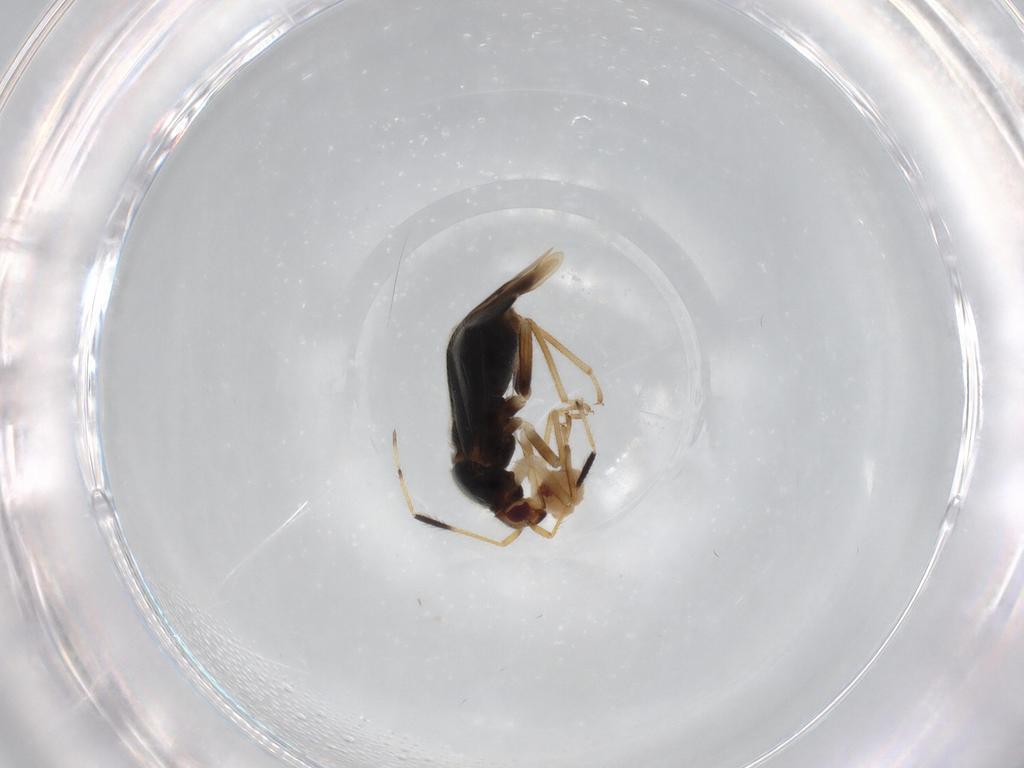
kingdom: Animalia
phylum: Arthropoda
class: Insecta
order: Hemiptera
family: Miridae
